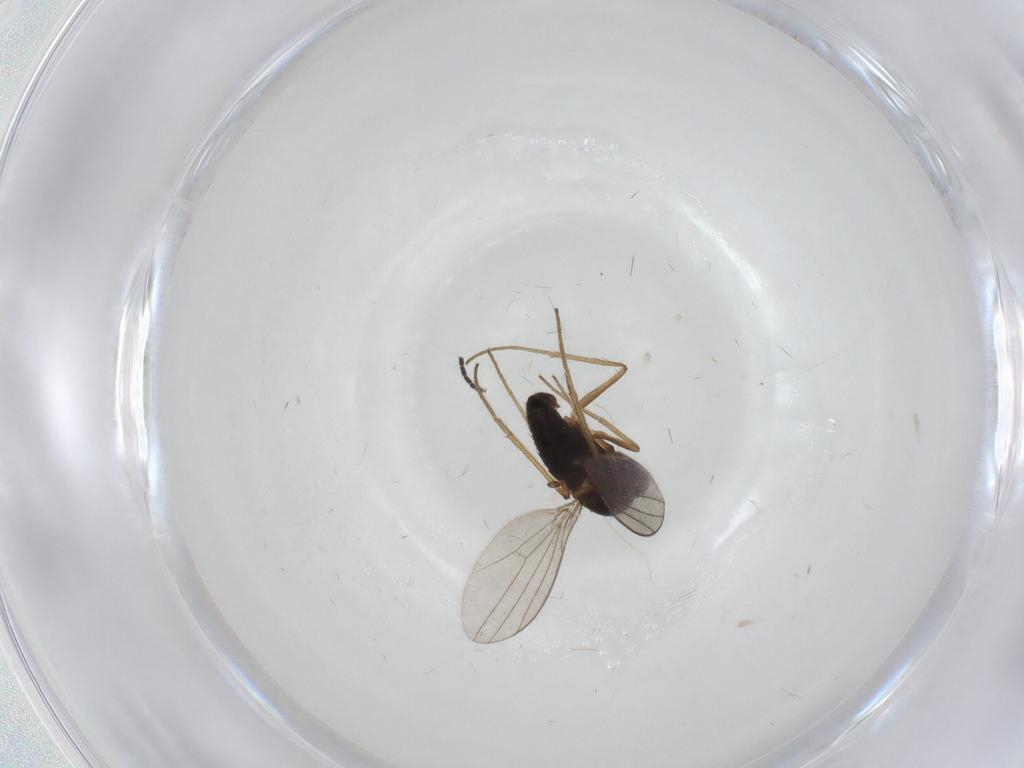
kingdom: Animalia
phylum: Arthropoda
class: Insecta
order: Diptera
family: Dolichopodidae
